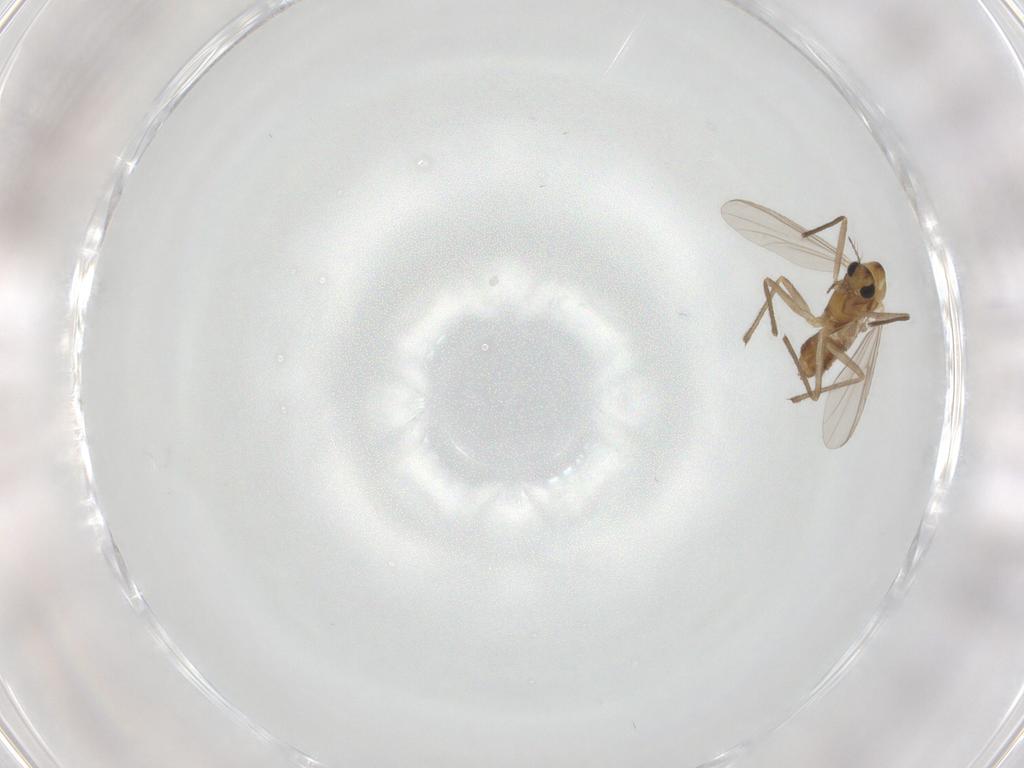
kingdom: Animalia
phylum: Arthropoda
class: Insecta
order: Diptera
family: Chironomidae
